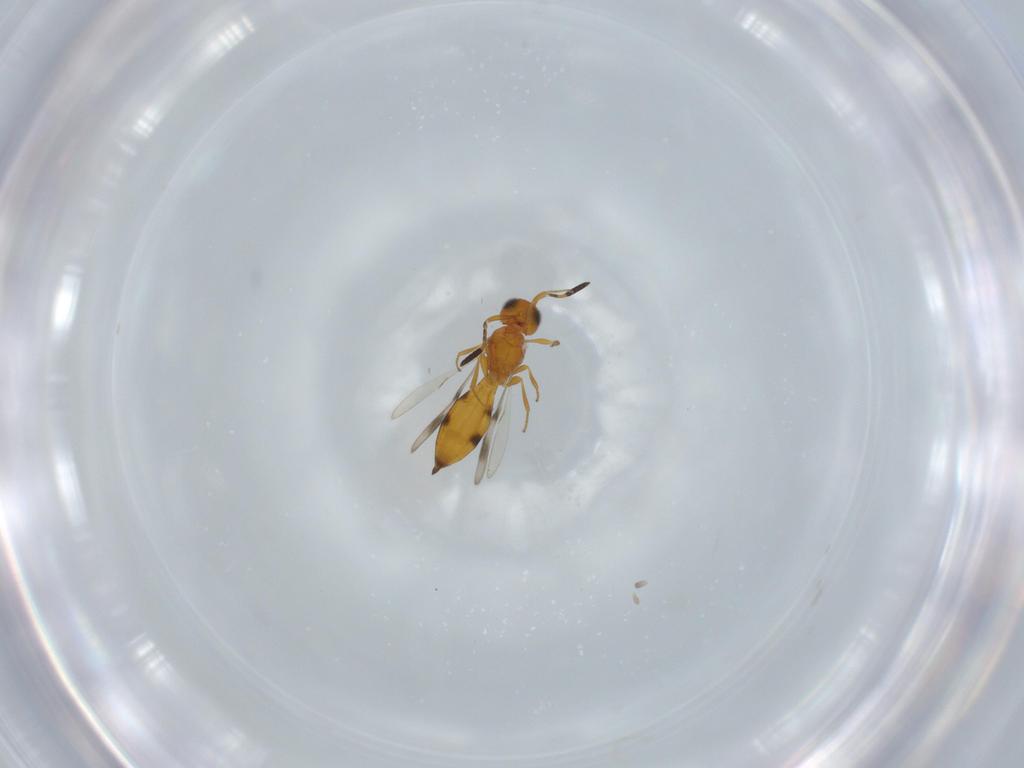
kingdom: Animalia
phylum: Arthropoda
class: Insecta
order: Hymenoptera
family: Scelionidae
